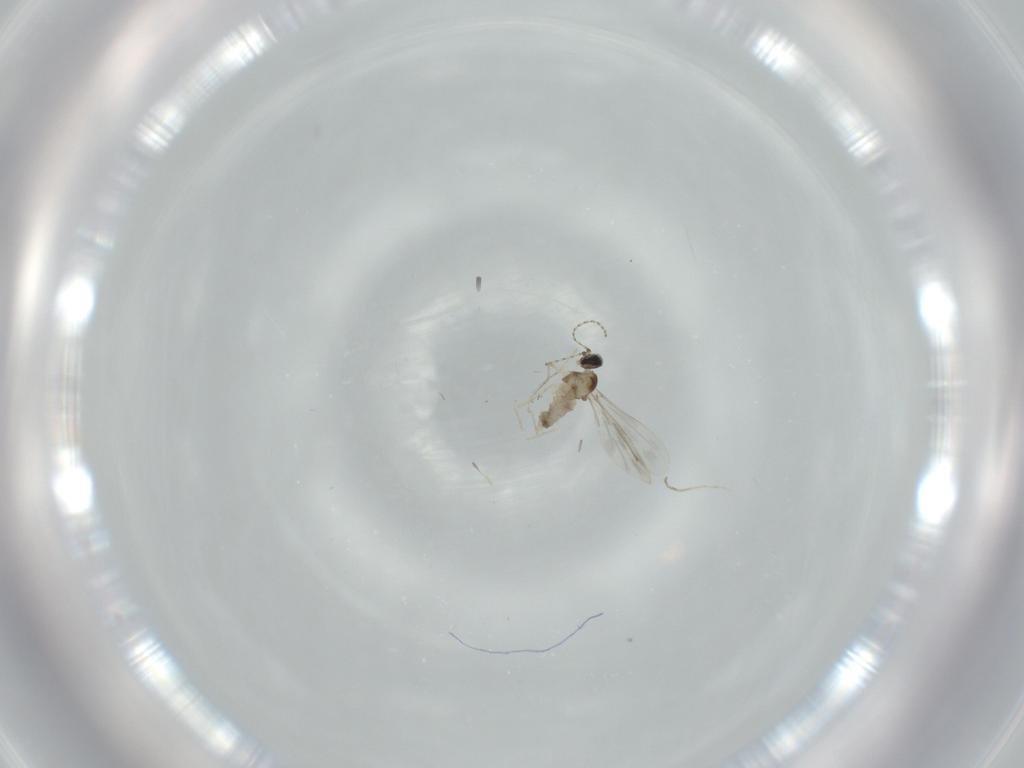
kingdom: Animalia
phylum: Arthropoda
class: Insecta
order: Diptera
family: Cecidomyiidae
